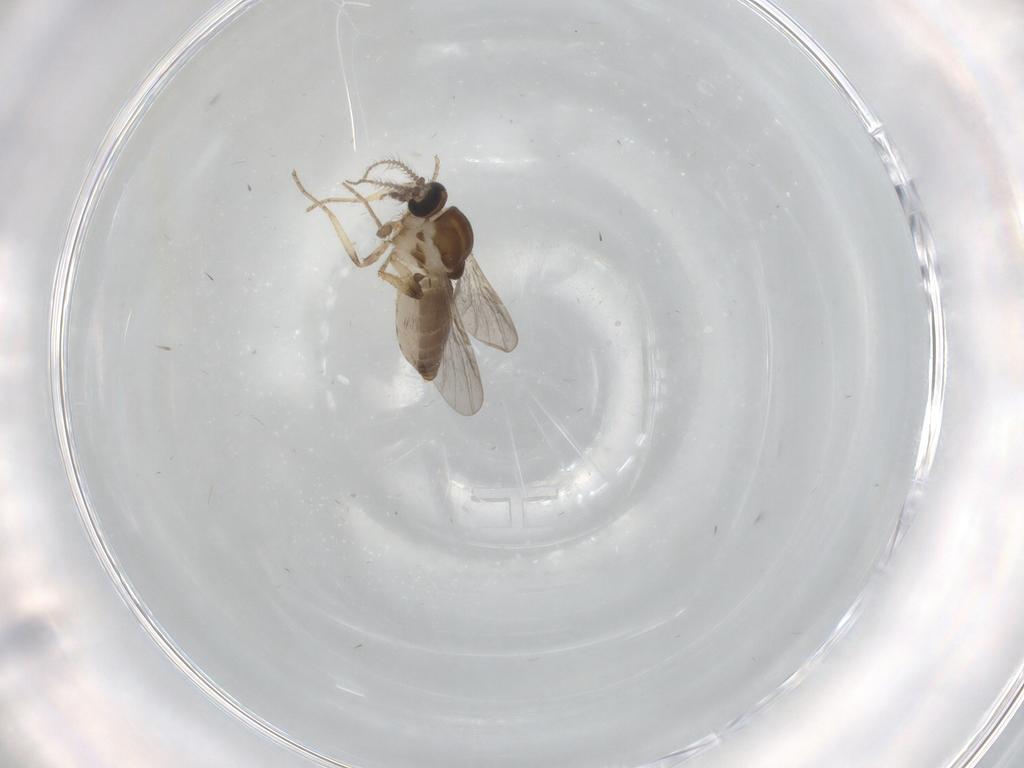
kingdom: Animalia
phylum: Arthropoda
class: Insecta
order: Diptera
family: Ceratopogonidae
